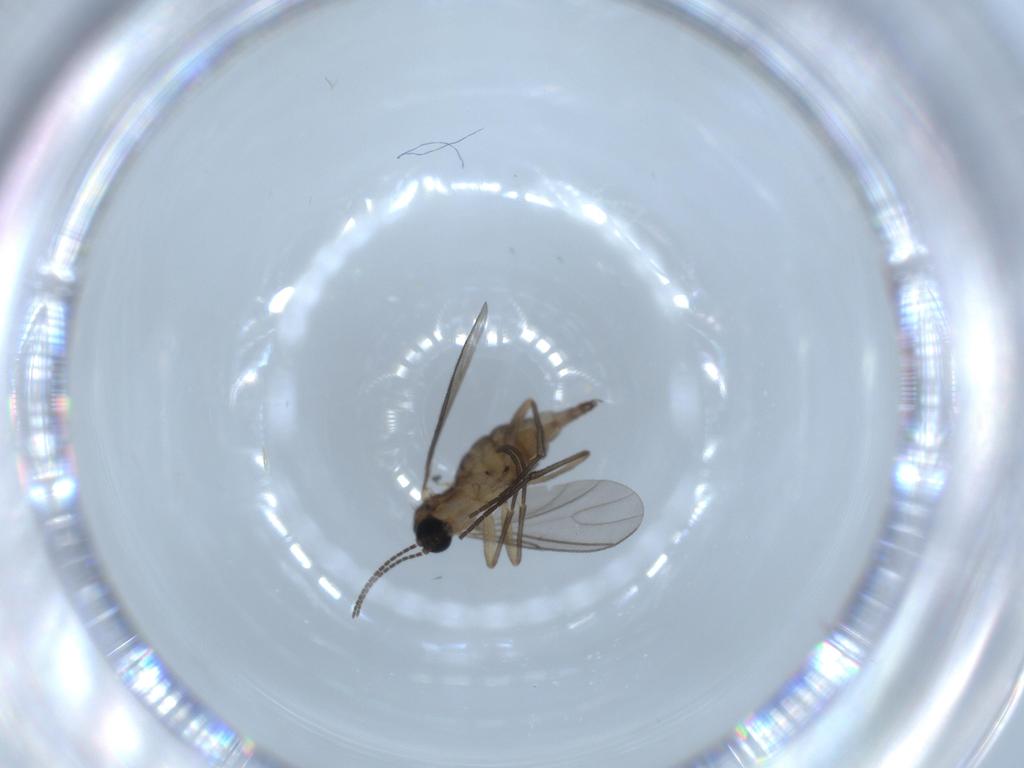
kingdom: Animalia
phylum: Arthropoda
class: Insecta
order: Diptera
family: Sciaridae
